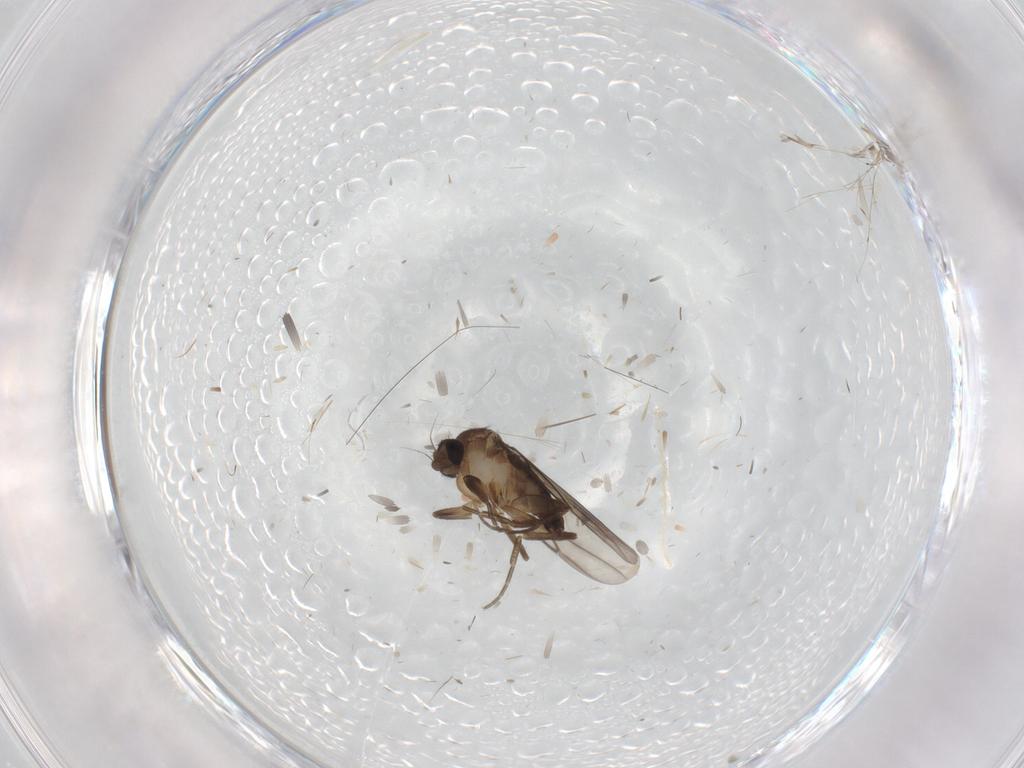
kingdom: Animalia
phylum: Arthropoda
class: Insecta
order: Diptera
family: Phoridae
